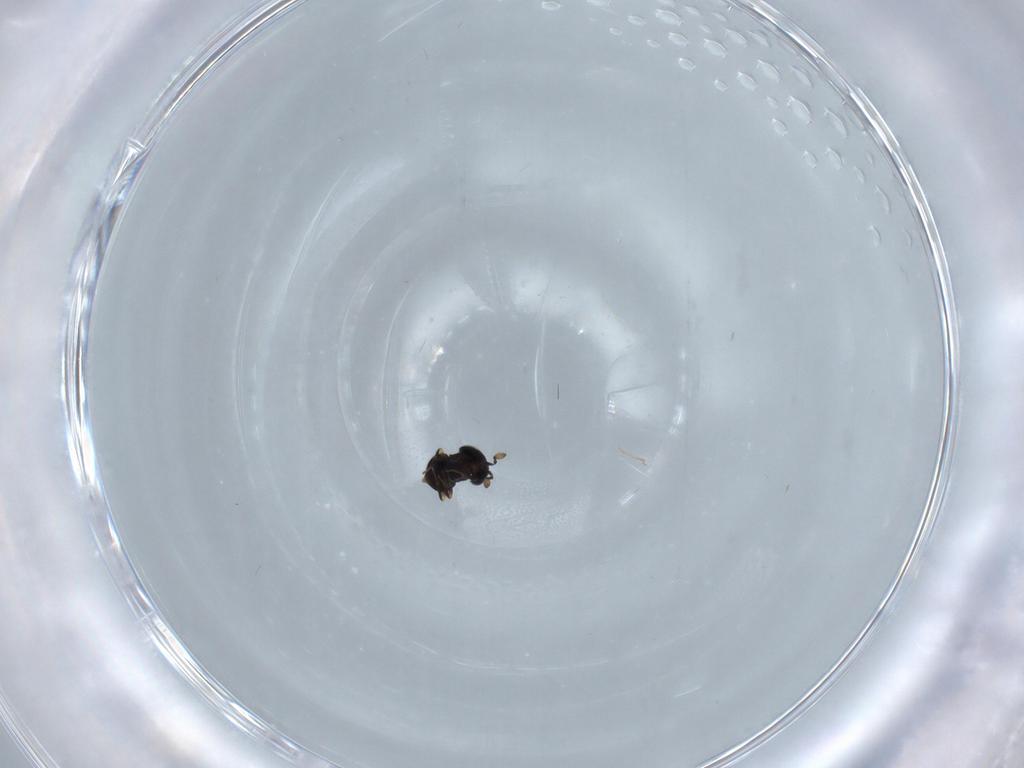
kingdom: Animalia
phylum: Arthropoda
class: Insecta
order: Hymenoptera
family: Scelionidae
